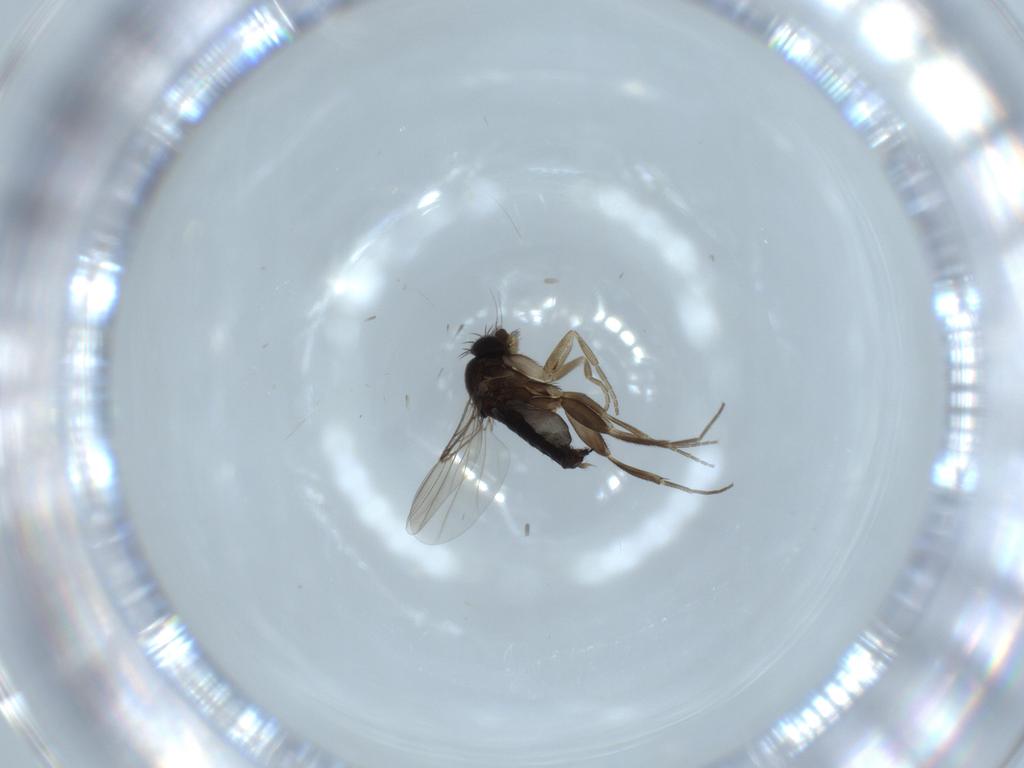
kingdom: Animalia
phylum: Arthropoda
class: Insecta
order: Diptera
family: Phoridae
